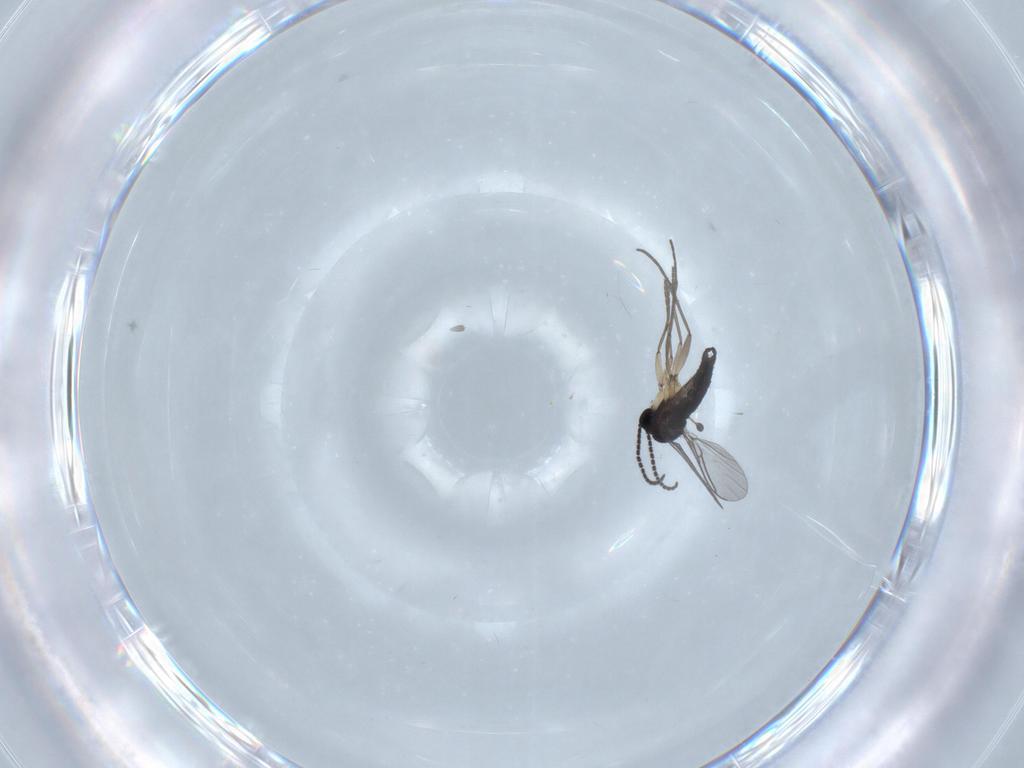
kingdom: Animalia
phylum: Arthropoda
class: Insecta
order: Diptera
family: Sciaridae
